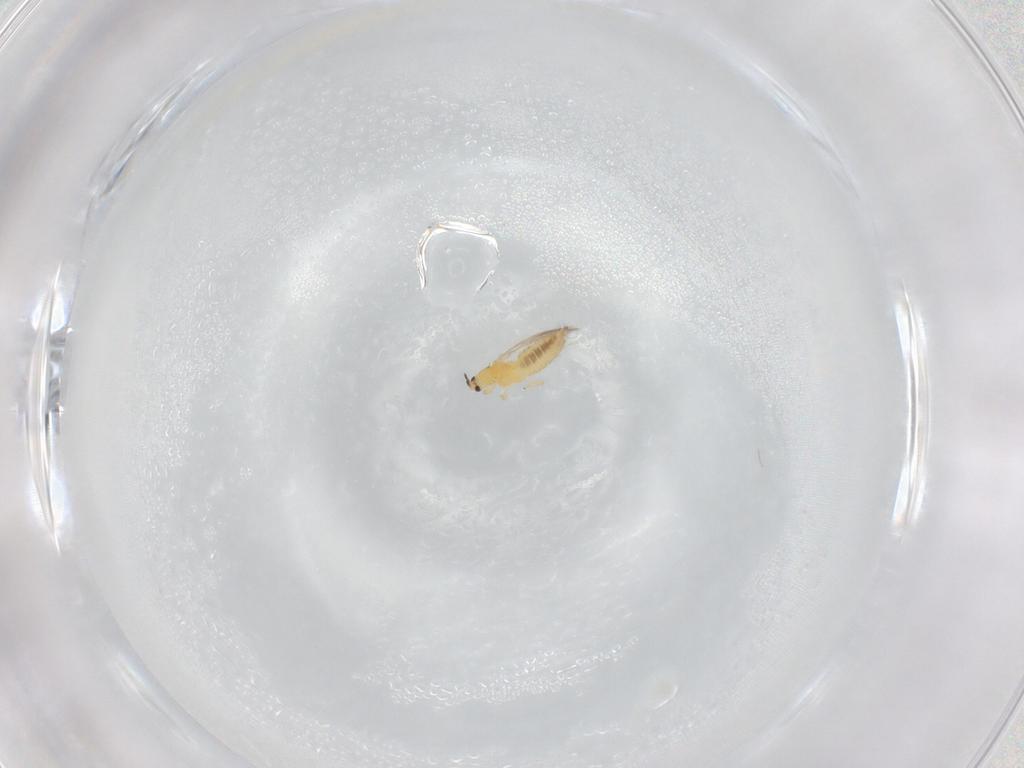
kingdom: Animalia
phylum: Arthropoda
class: Insecta
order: Thysanoptera
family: Thripidae
